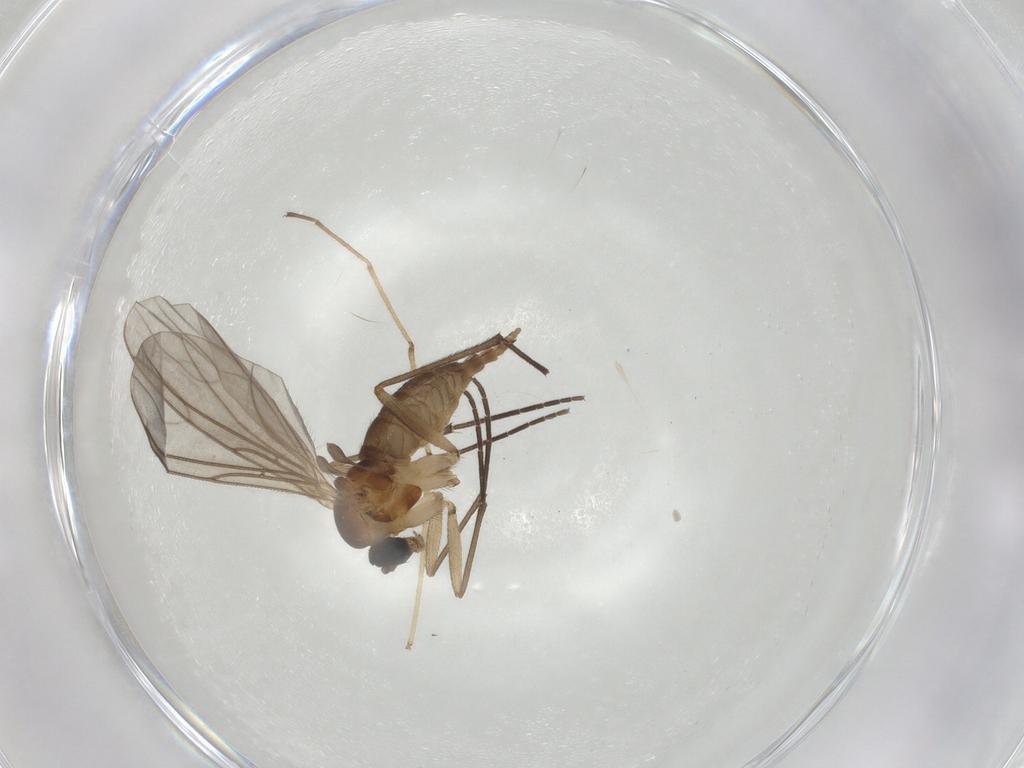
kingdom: Animalia
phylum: Arthropoda
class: Insecta
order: Diptera
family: Sciaridae
